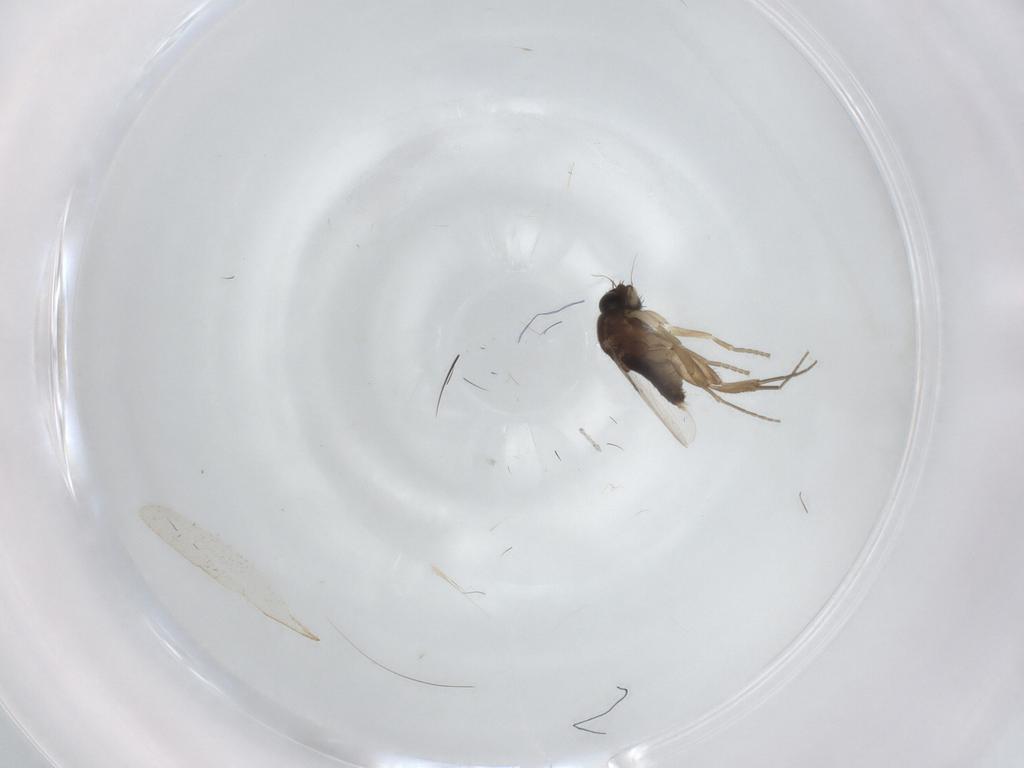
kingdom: Animalia
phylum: Arthropoda
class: Insecta
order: Diptera
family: Phoridae
